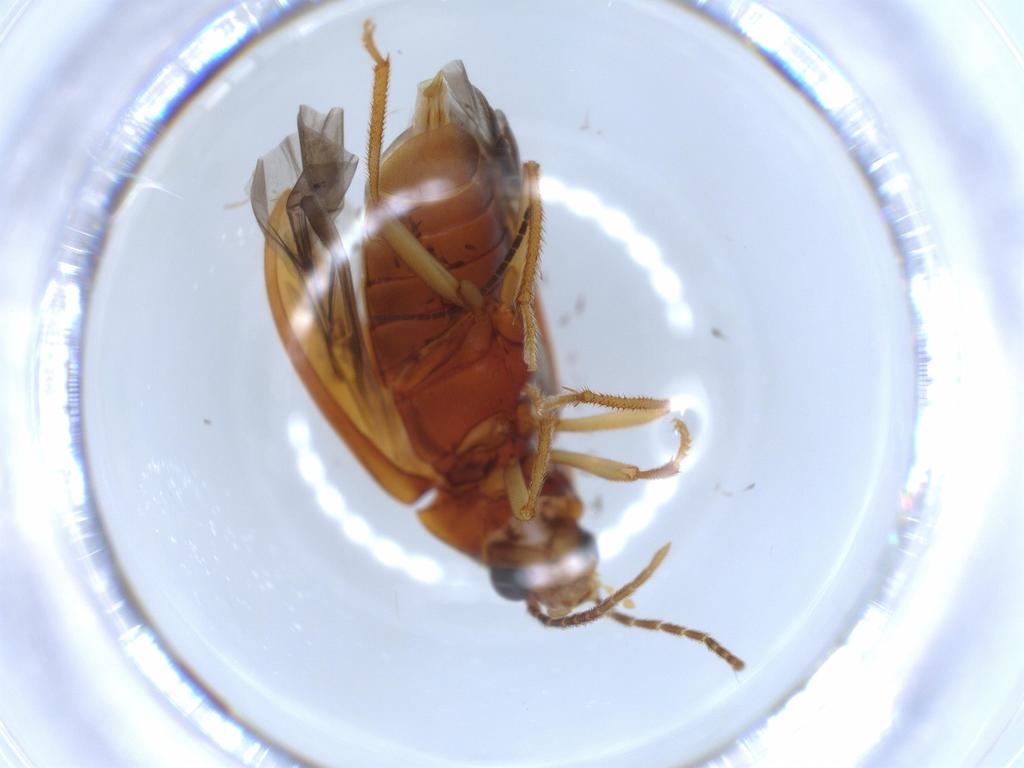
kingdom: Animalia
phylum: Arthropoda
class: Insecta
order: Coleoptera
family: Ptilodactylidae
